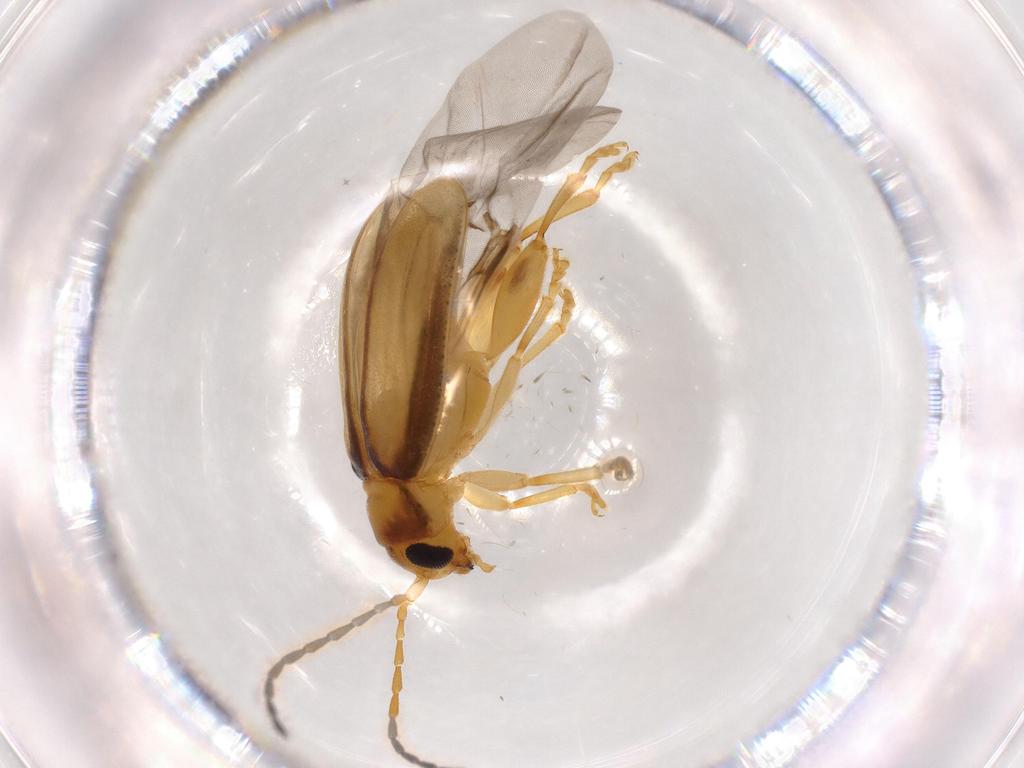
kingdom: Animalia
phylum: Arthropoda
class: Insecta
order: Coleoptera
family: Chrysomelidae
